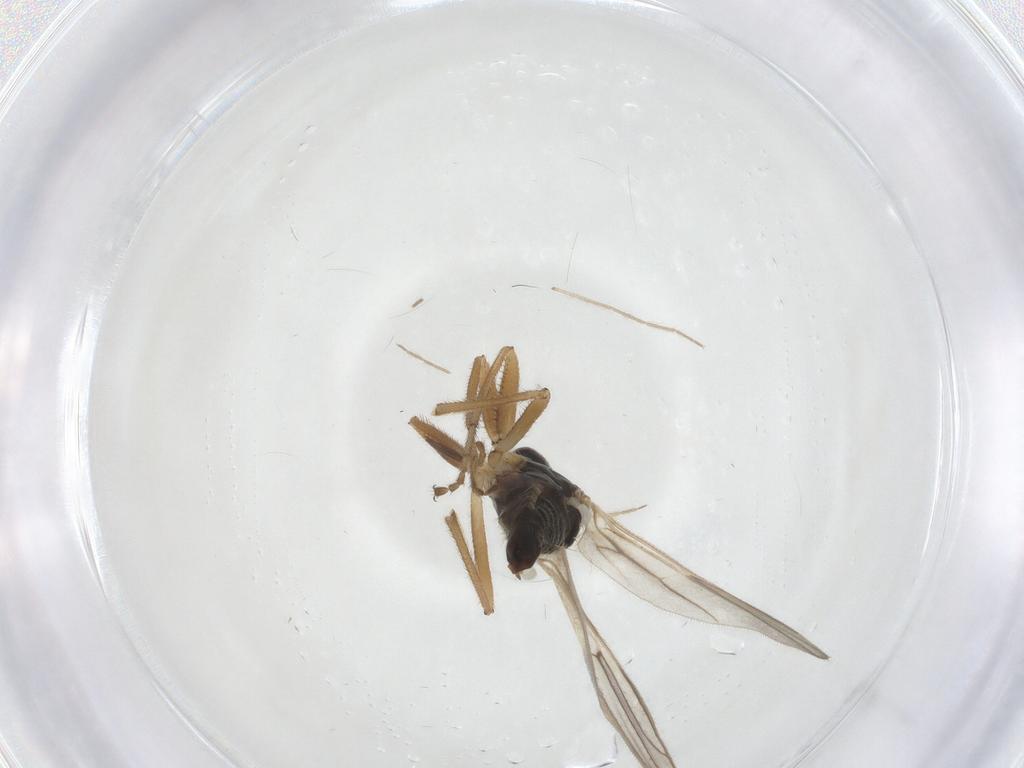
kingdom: Animalia
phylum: Arthropoda
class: Insecta
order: Diptera
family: Hybotidae
